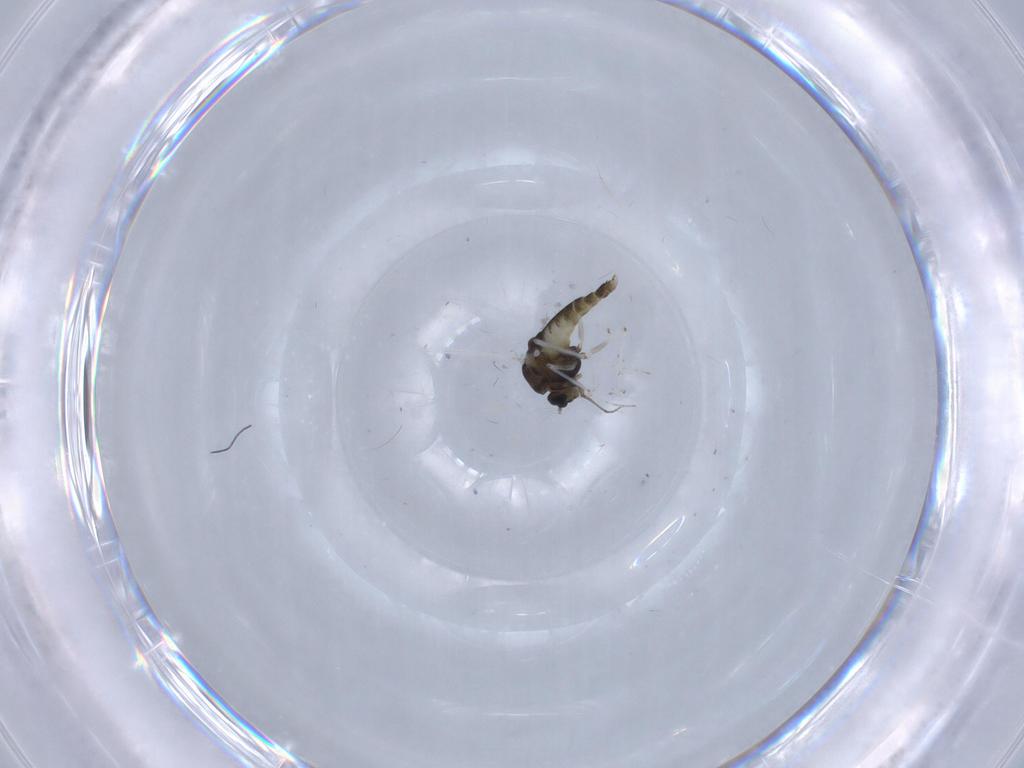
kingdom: Animalia
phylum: Arthropoda
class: Insecta
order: Diptera
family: Chironomidae
